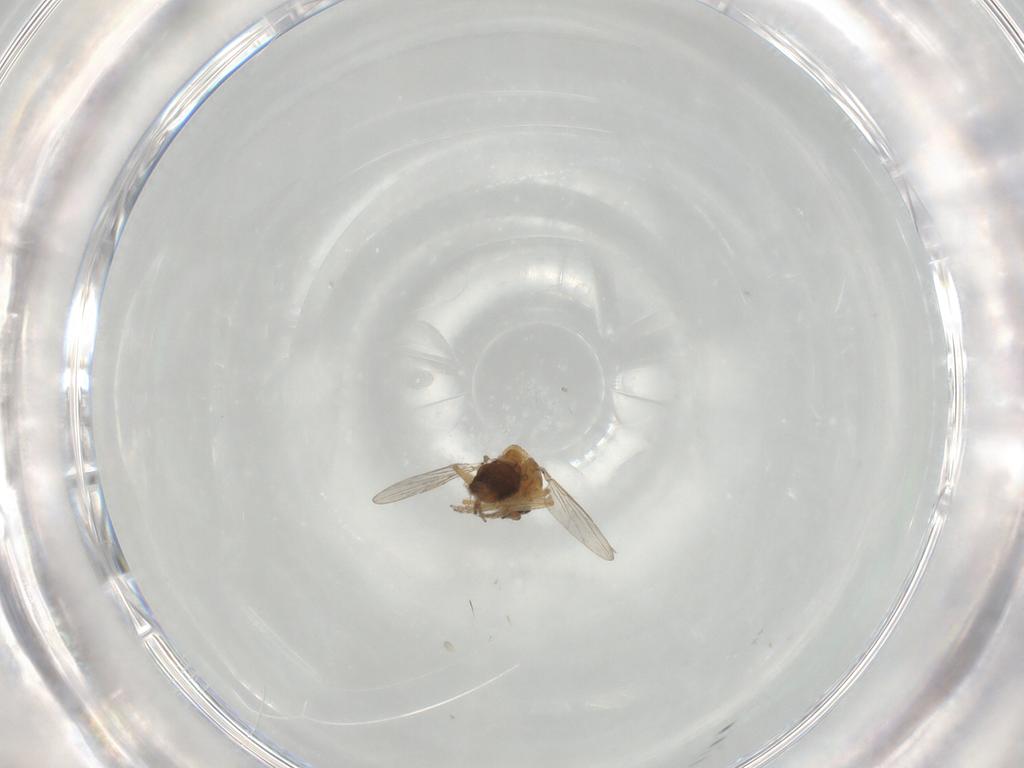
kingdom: Animalia
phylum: Arthropoda
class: Insecta
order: Diptera
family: Ceratopogonidae
